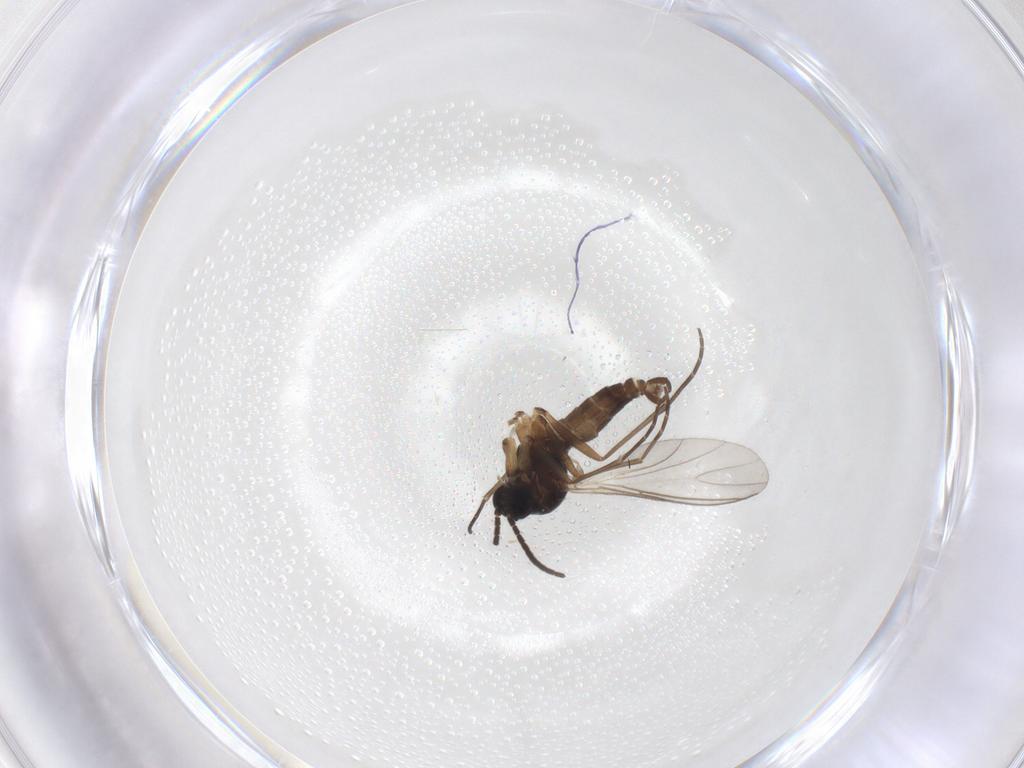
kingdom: Animalia
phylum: Arthropoda
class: Insecta
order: Diptera
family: Sciaridae
